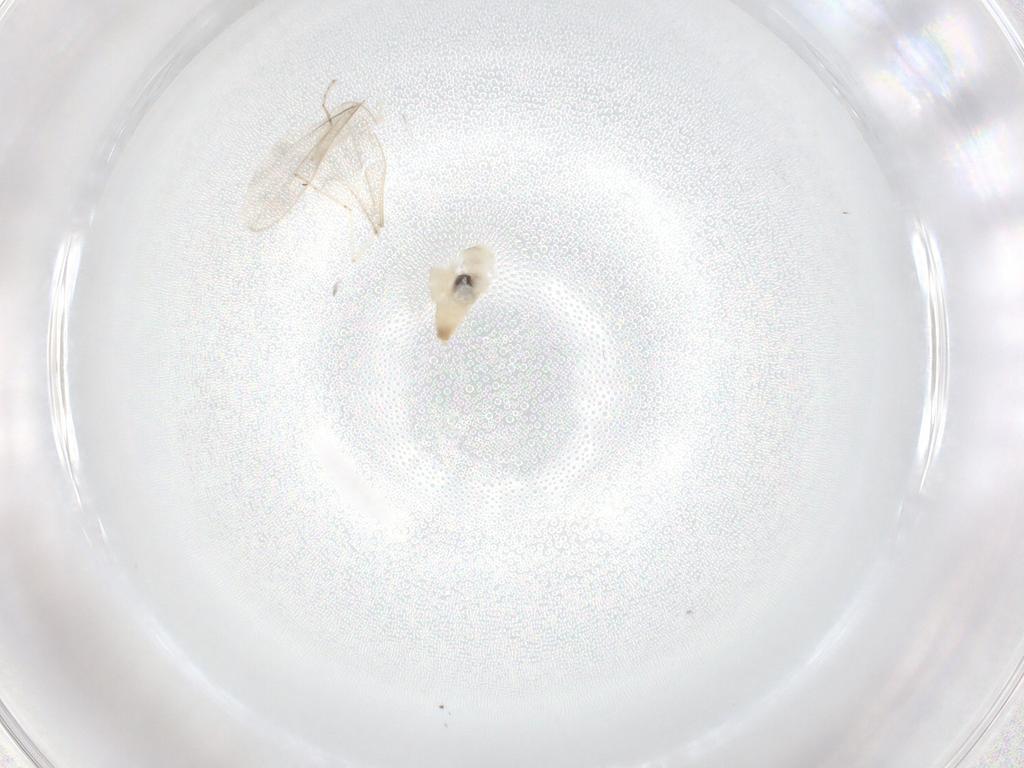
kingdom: Animalia
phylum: Arthropoda
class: Insecta
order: Diptera
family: Cecidomyiidae
